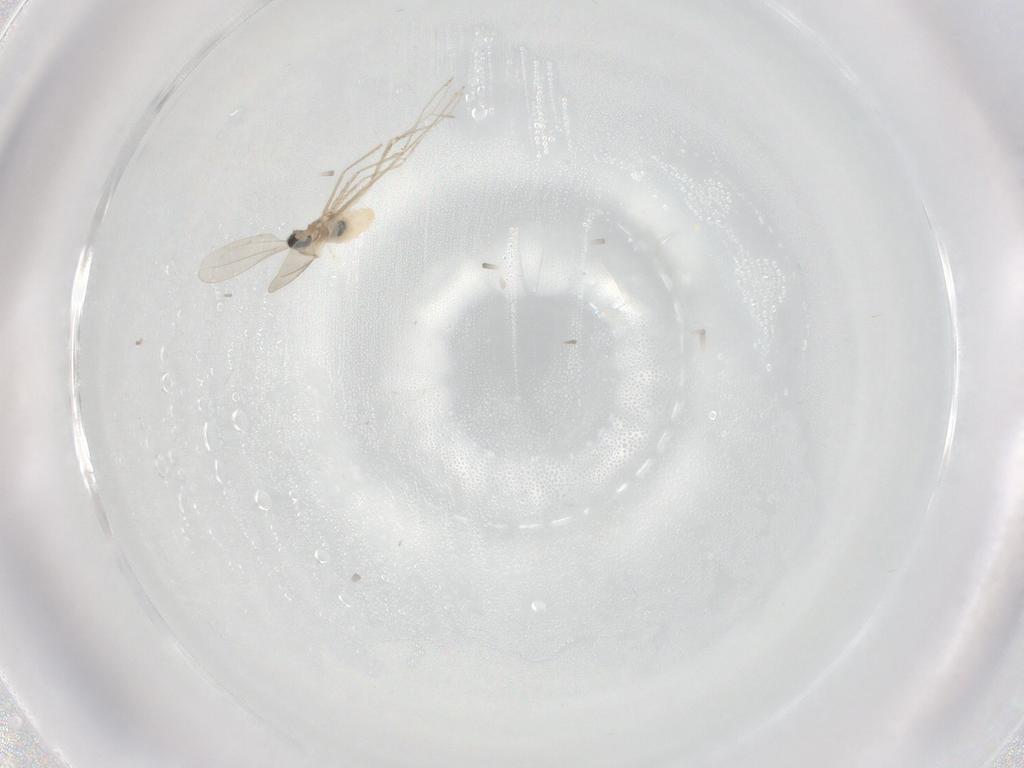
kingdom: Animalia
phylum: Arthropoda
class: Insecta
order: Diptera
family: Cecidomyiidae
